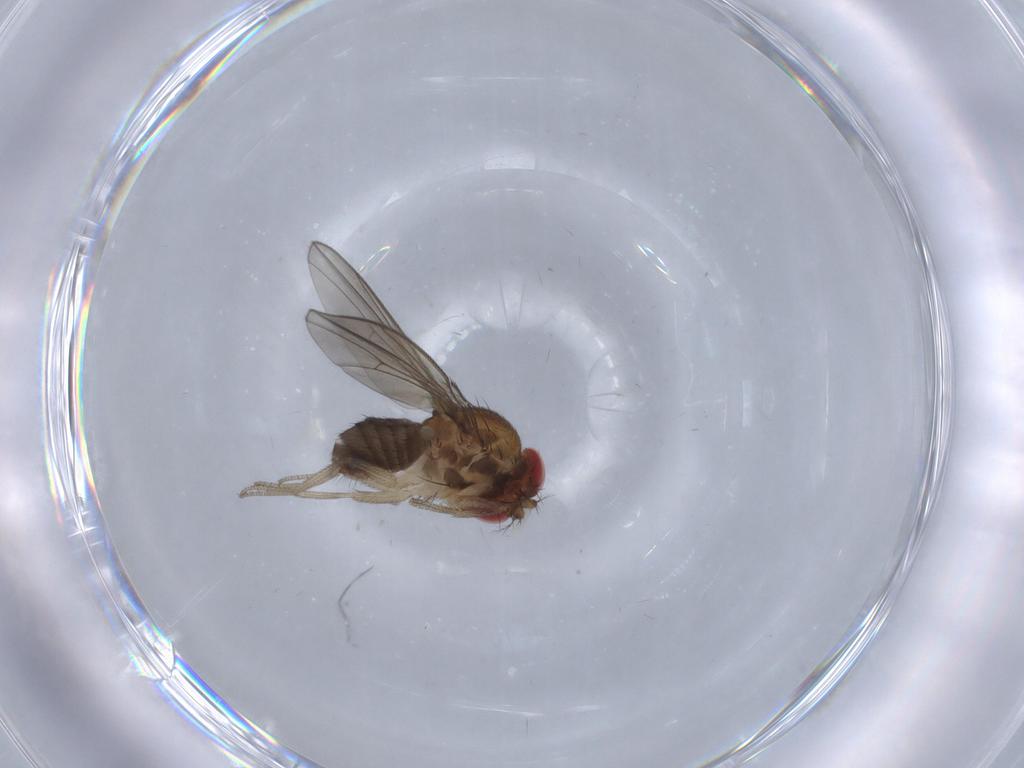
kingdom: Animalia
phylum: Arthropoda
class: Insecta
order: Diptera
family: Drosophilidae
